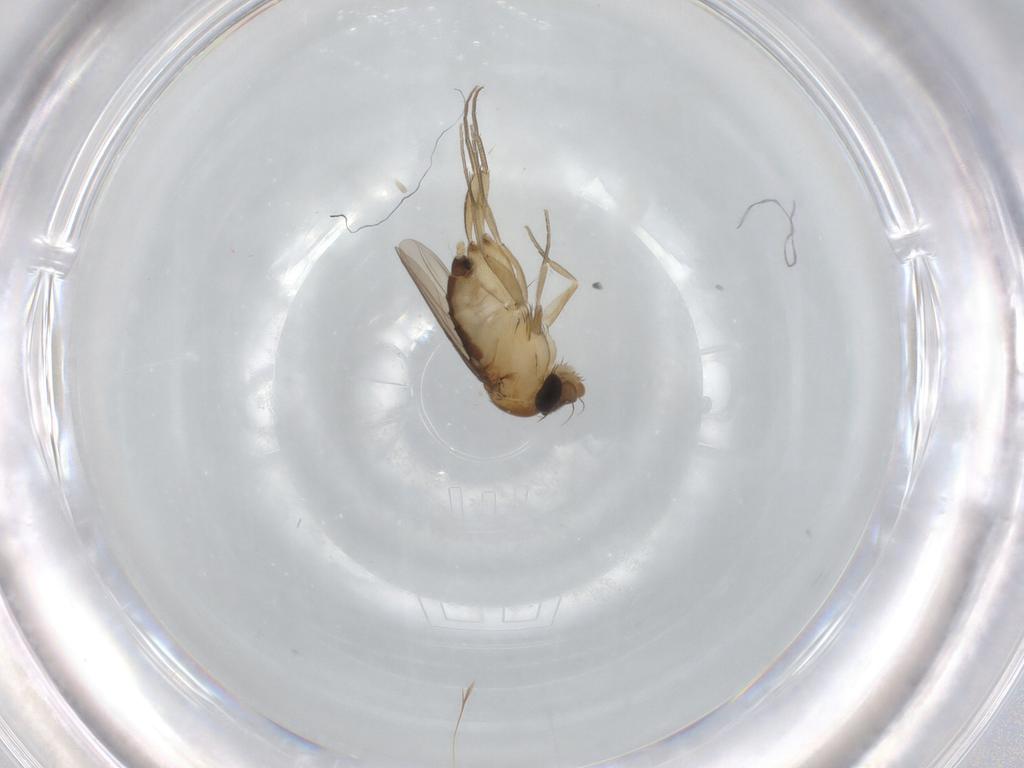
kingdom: Animalia
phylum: Arthropoda
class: Insecta
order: Diptera
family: Phoridae
